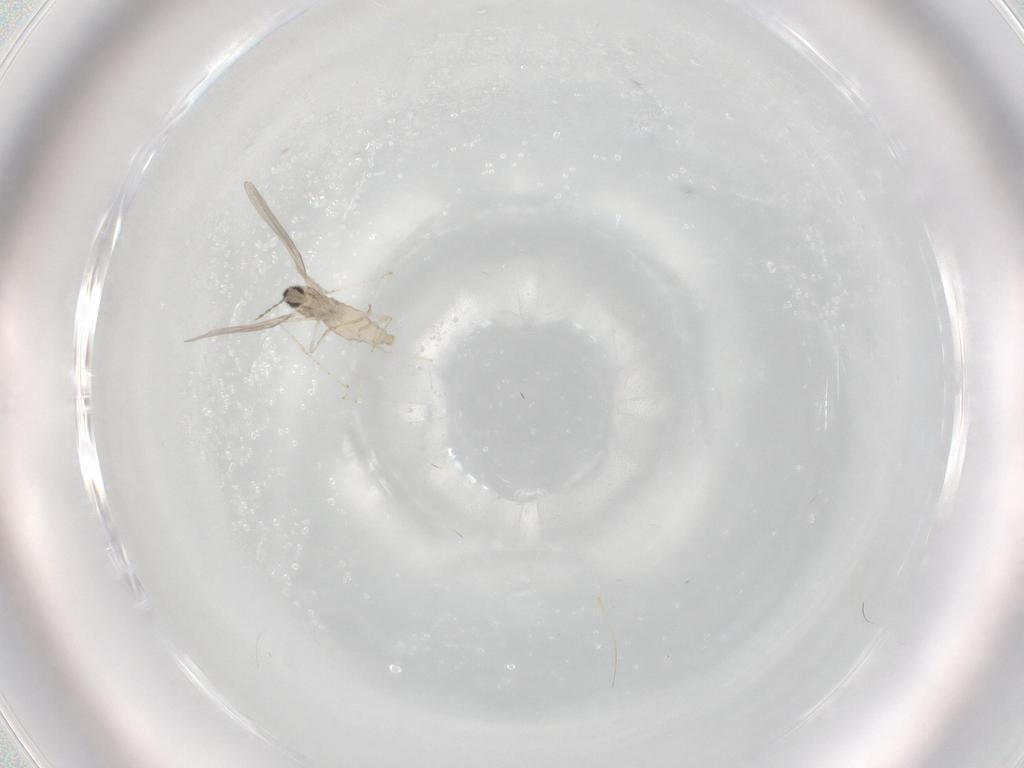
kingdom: Animalia
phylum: Arthropoda
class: Insecta
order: Diptera
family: Cecidomyiidae
